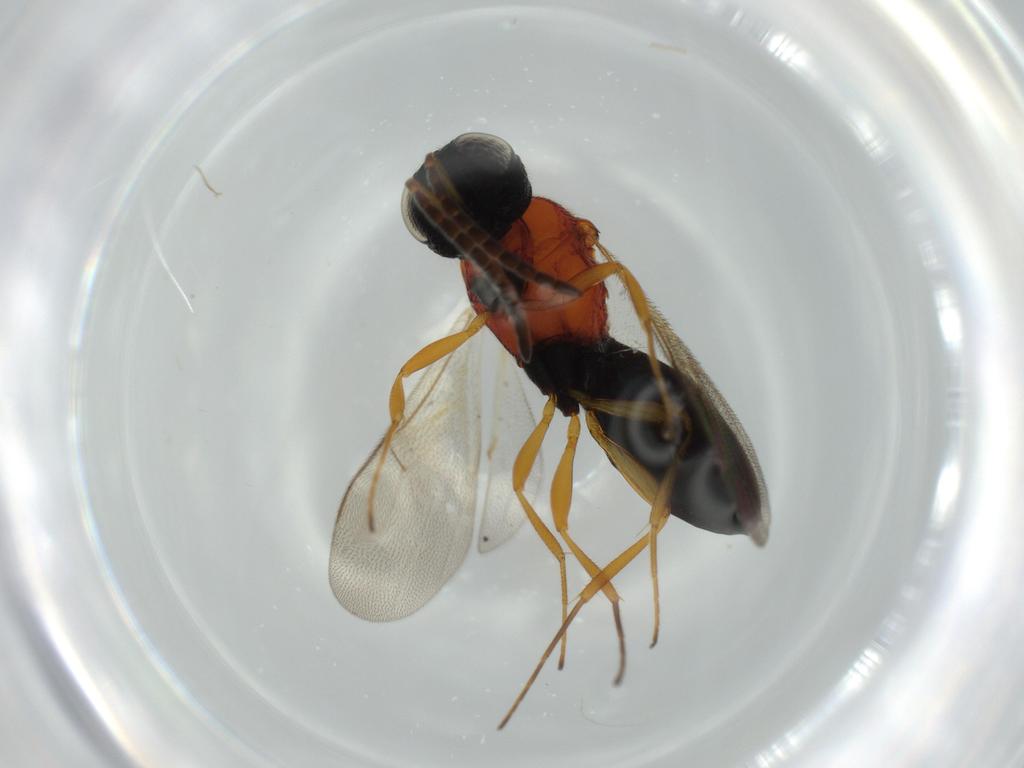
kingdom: Animalia
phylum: Arthropoda
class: Insecta
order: Hymenoptera
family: Scelionidae
